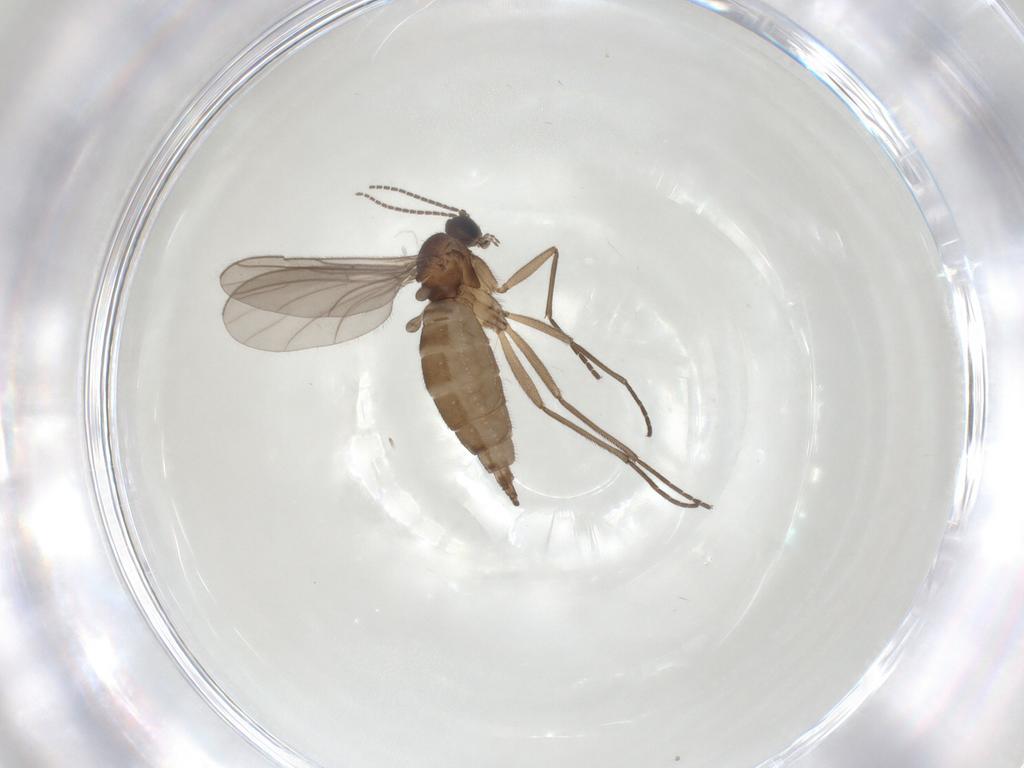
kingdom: Animalia
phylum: Arthropoda
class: Insecta
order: Diptera
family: Sciaridae
